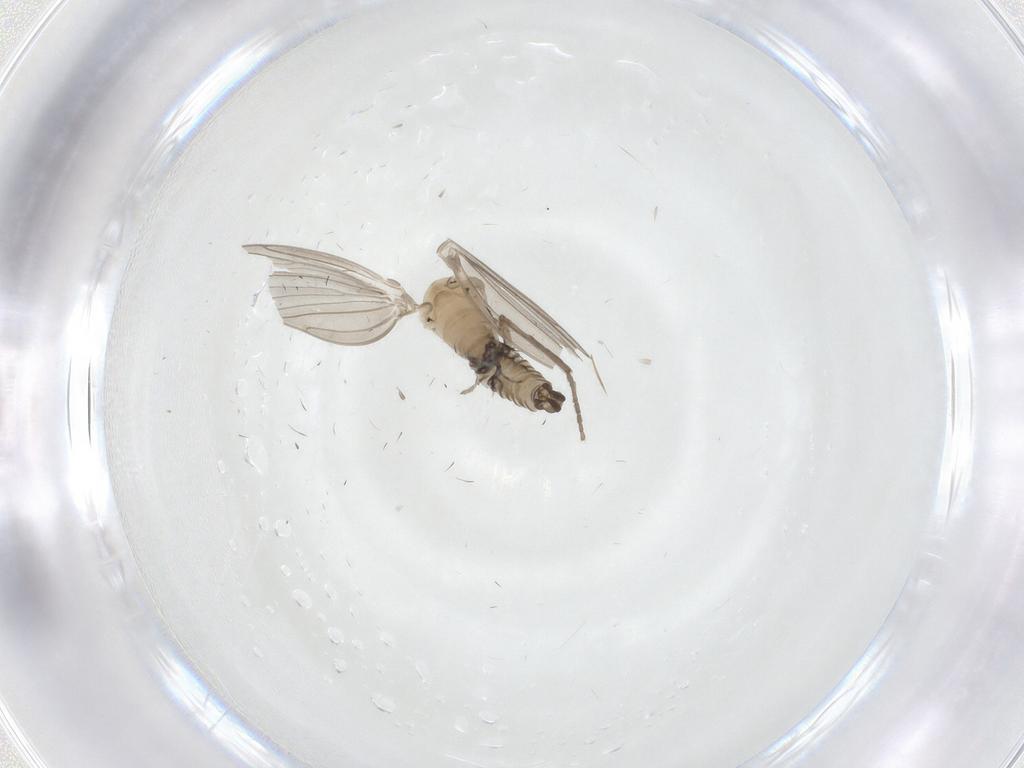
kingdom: Animalia
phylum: Arthropoda
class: Insecta
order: Diptera
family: Psychodidae
